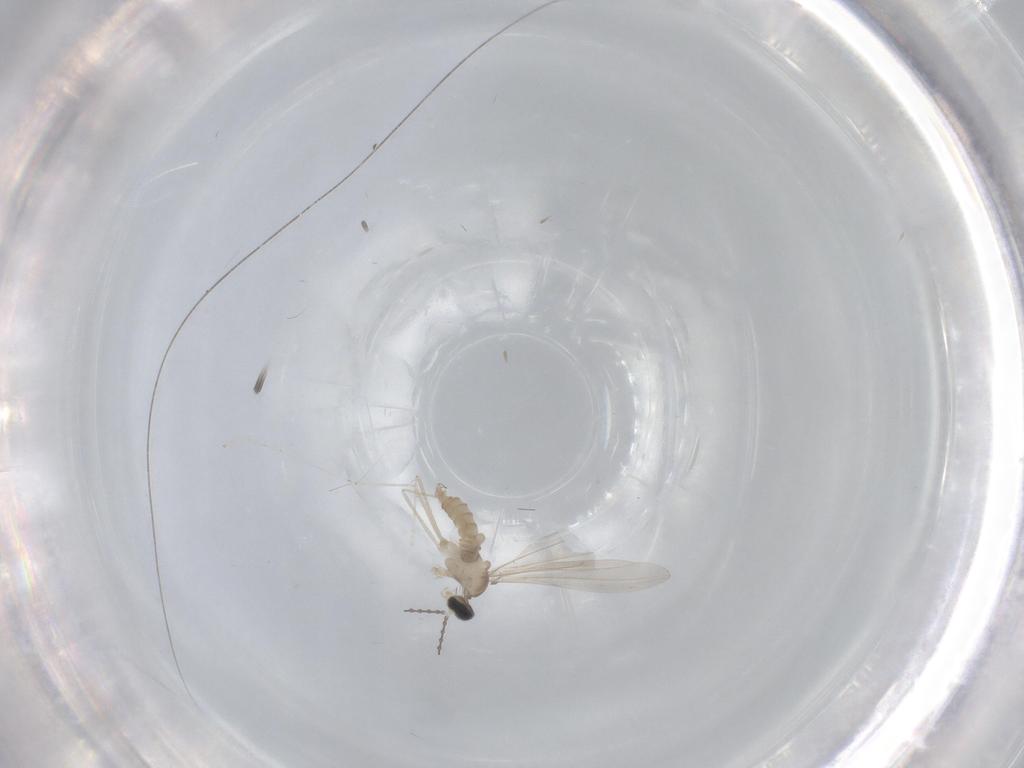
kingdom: Animalia
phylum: Arthropoda
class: Insecta
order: Diptera
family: Cecidomyiidae
